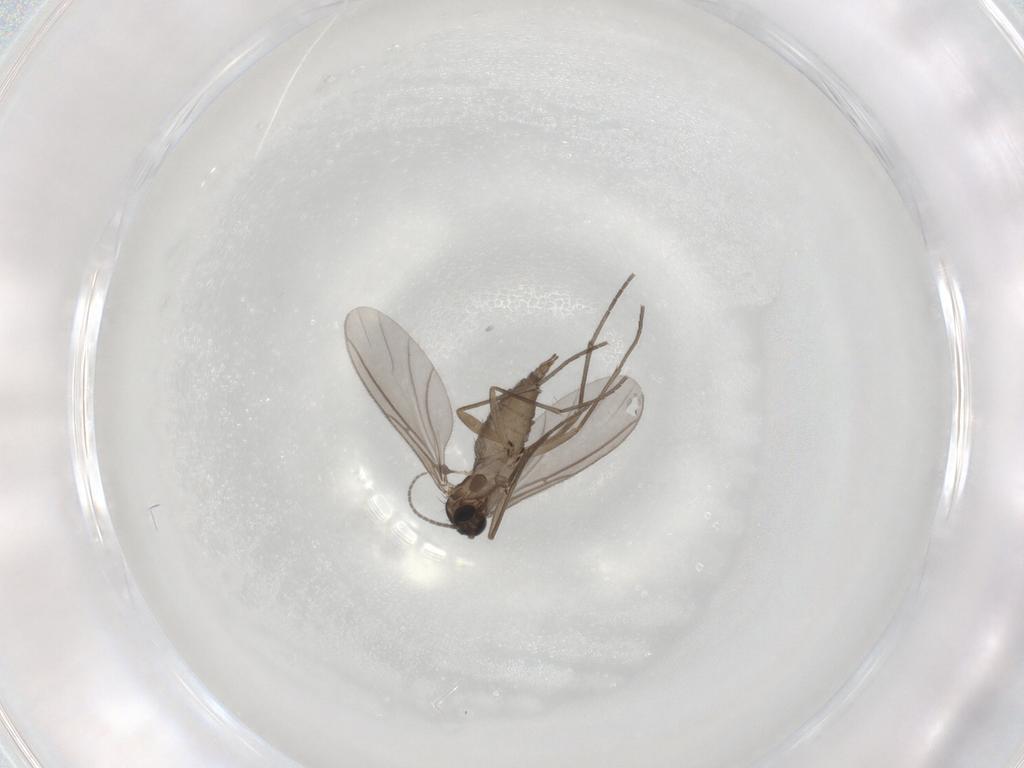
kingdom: Animalia
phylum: Arthropoda
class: Insecta
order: Diptera
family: Sciaridae
